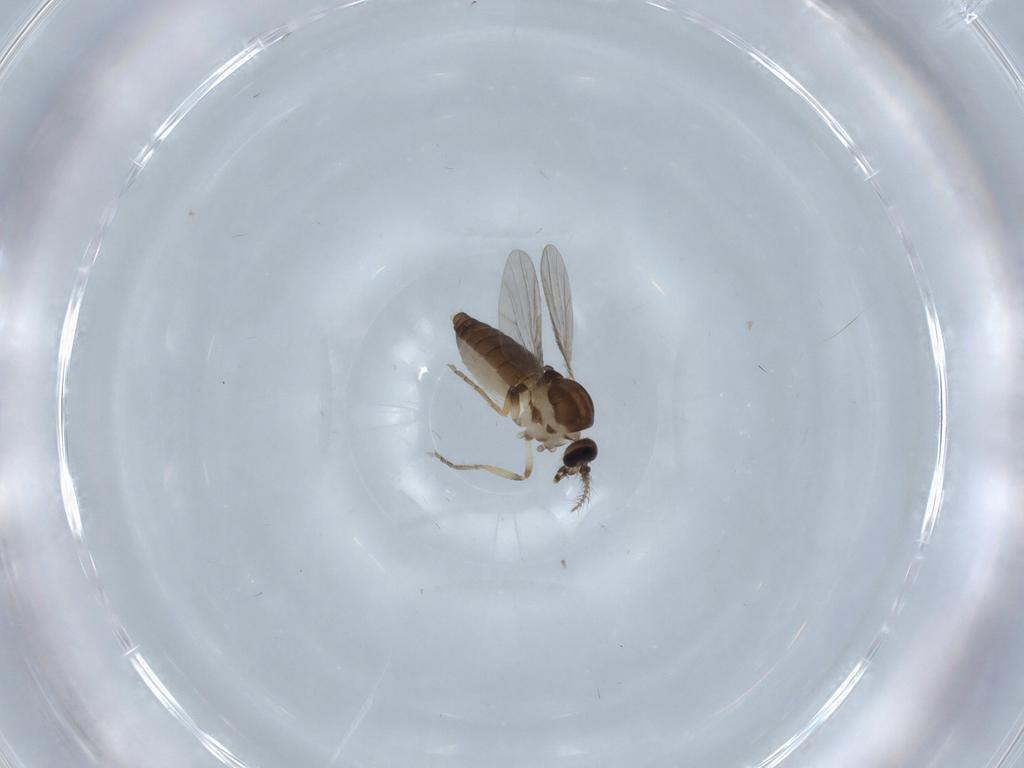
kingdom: Animalia
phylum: Arthropoda
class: Insecta
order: Diptera
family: Ceratopogonidae
